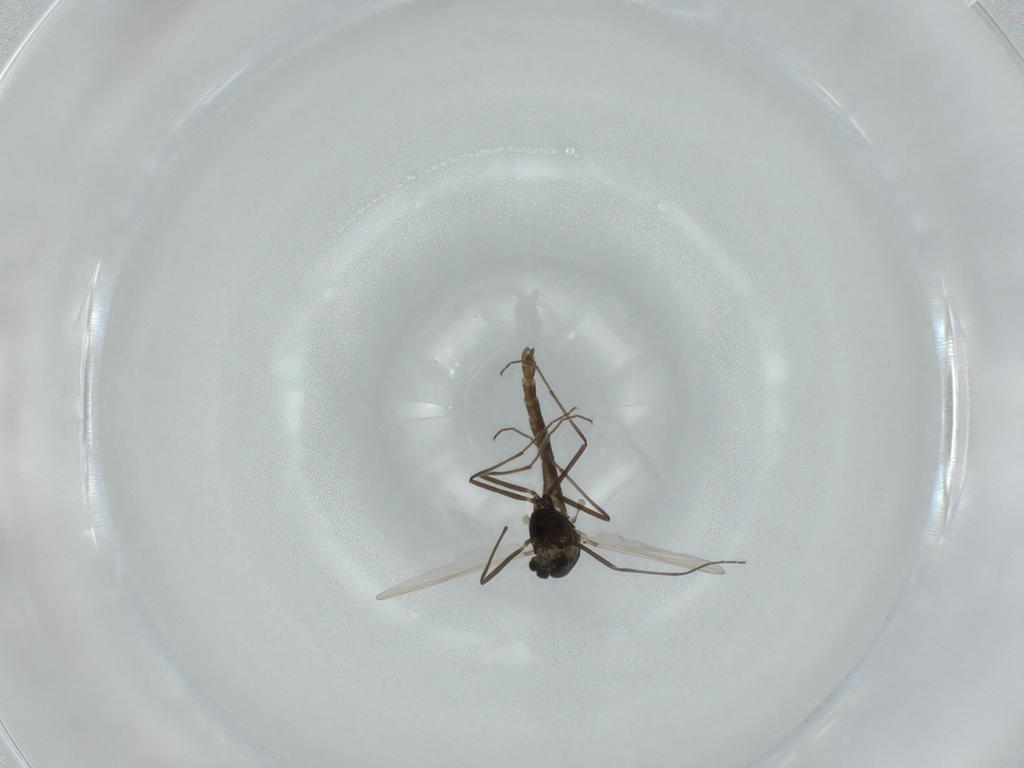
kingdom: Animalia
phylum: Arthropoda
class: Insecta
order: Diptera
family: Chironomidae
